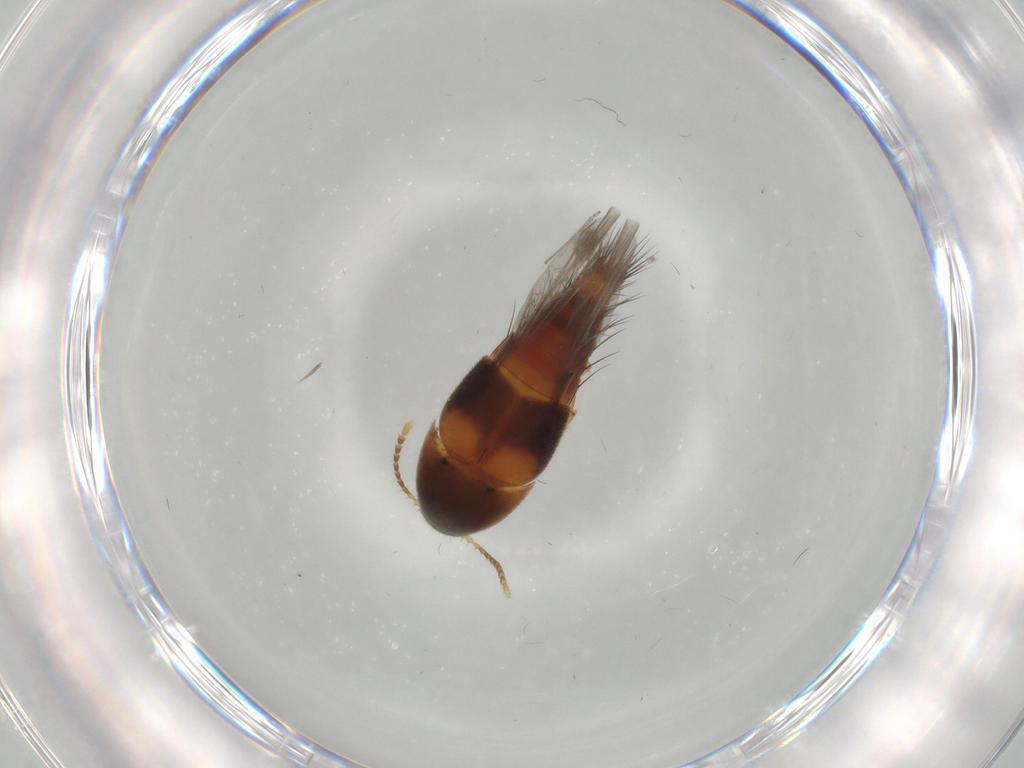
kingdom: Animalia
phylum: Arthropoda
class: Insecta
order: Coleoptera
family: Staphylinidae
